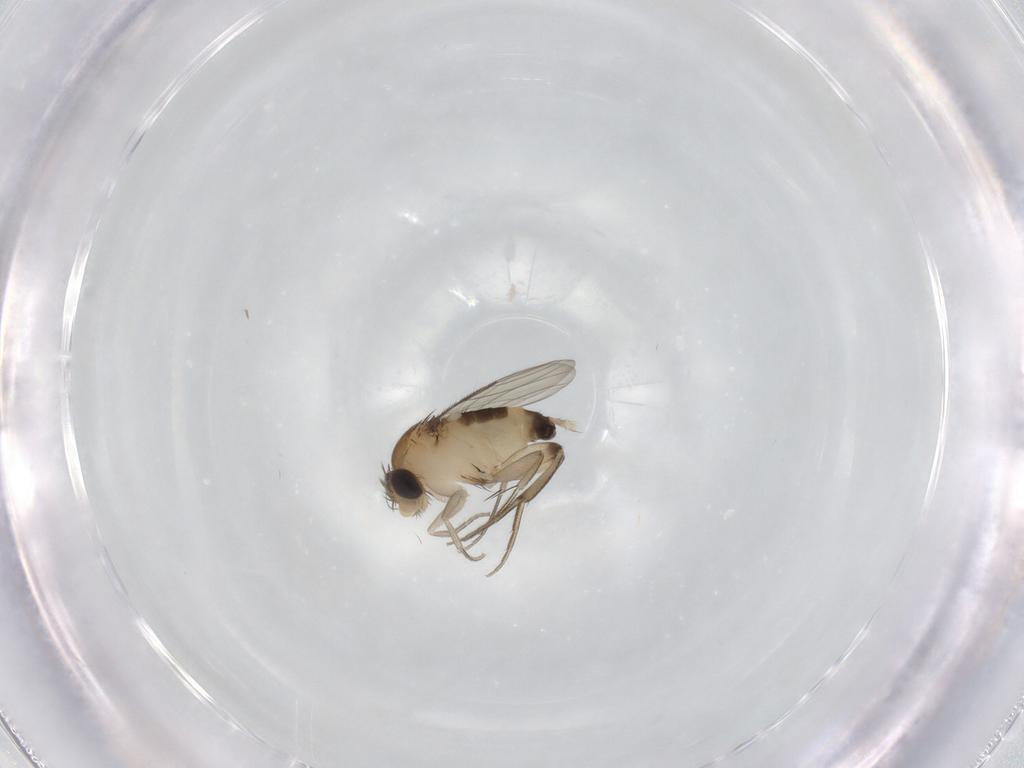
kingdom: Animalia
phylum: Arthropoda
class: Insecta
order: Diptera
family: Phoridae
